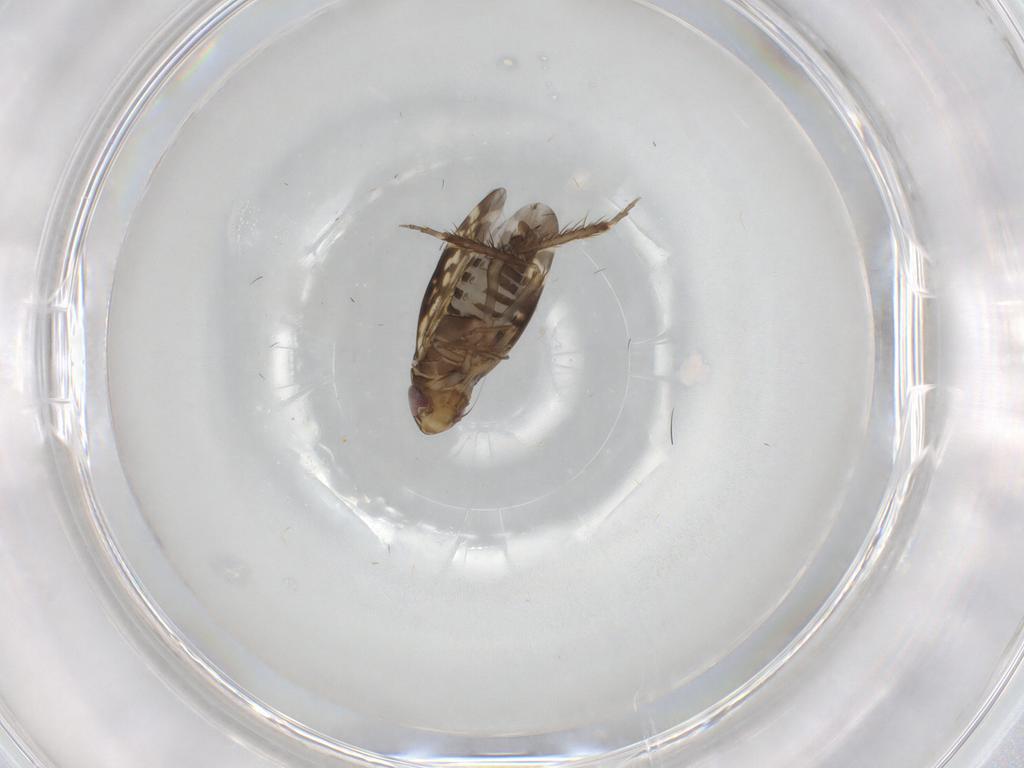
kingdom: Animalia
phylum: Arthropoda
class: Insecta
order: Hemiptera
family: Cicadellidae
